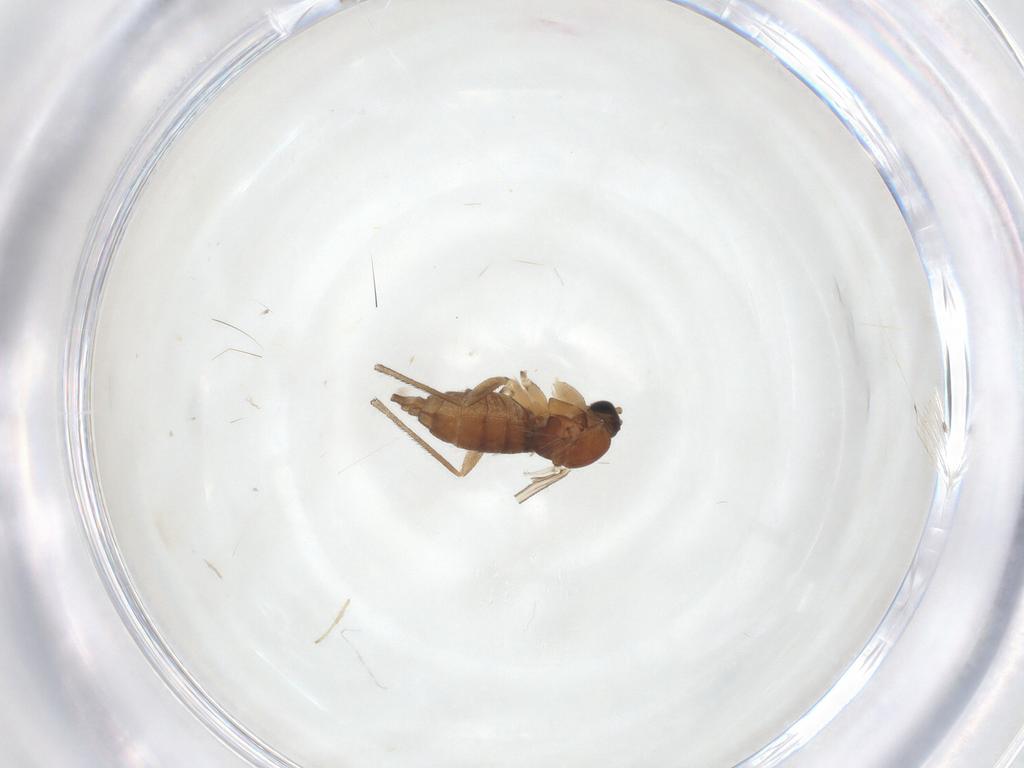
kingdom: Animalia
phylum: Arthropoda
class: Insecta
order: Diptera
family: Sciaridae
